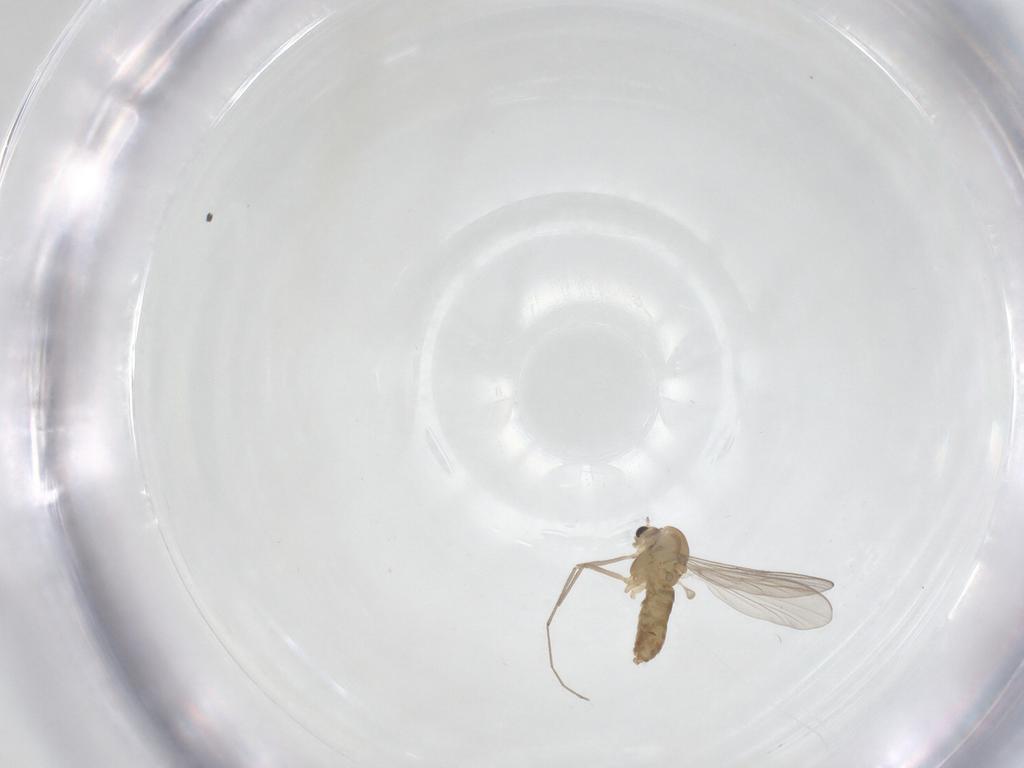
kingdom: Animalia
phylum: Arthropoda
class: Insecta
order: Diptera
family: Chironomidae
